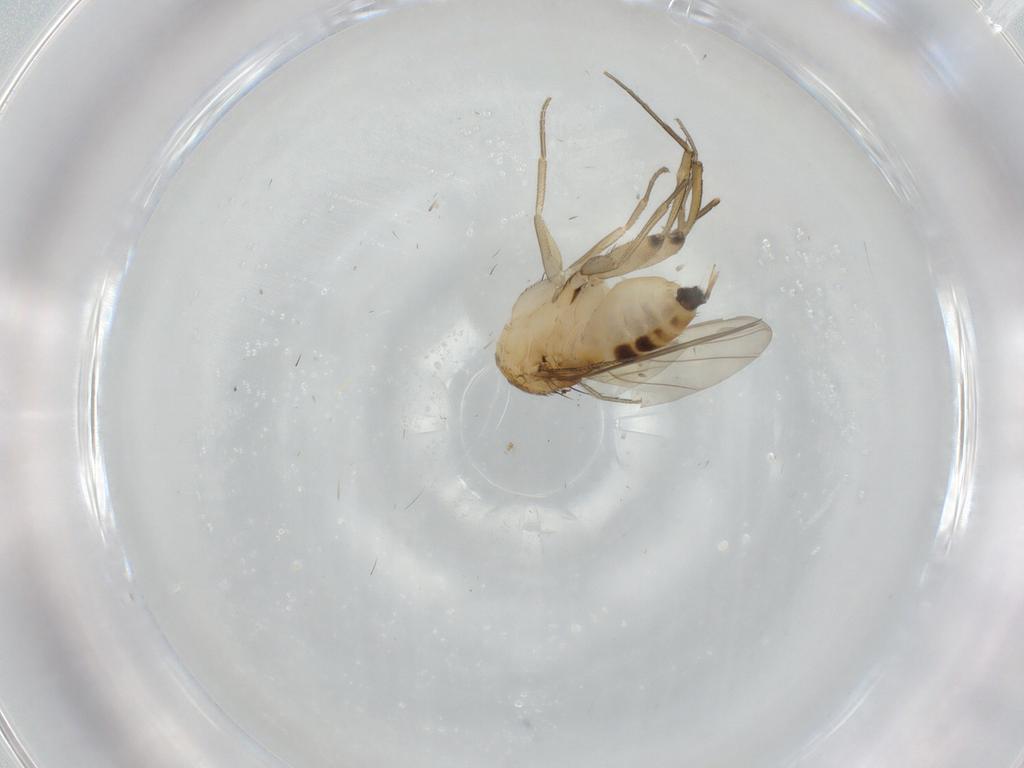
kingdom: Animalia
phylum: Arthropoda
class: Insecta
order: Diptera
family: Phoridae
